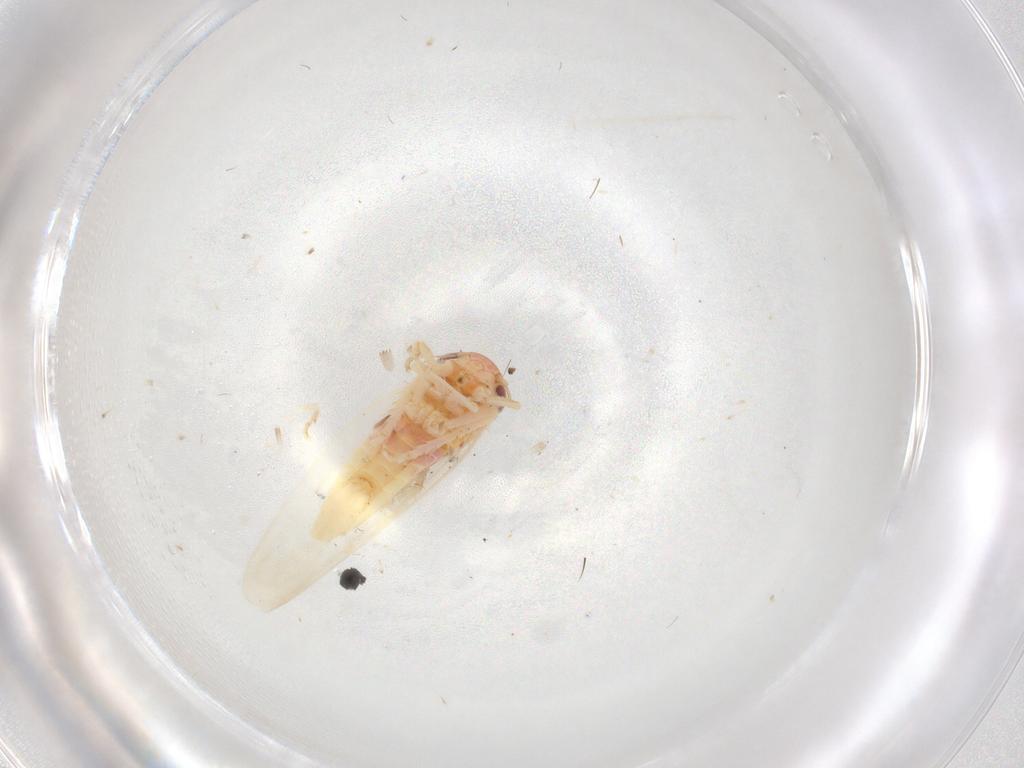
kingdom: Animalia
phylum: Arthropoda
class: Insecta
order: Hemiptera
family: Cicadellidae
